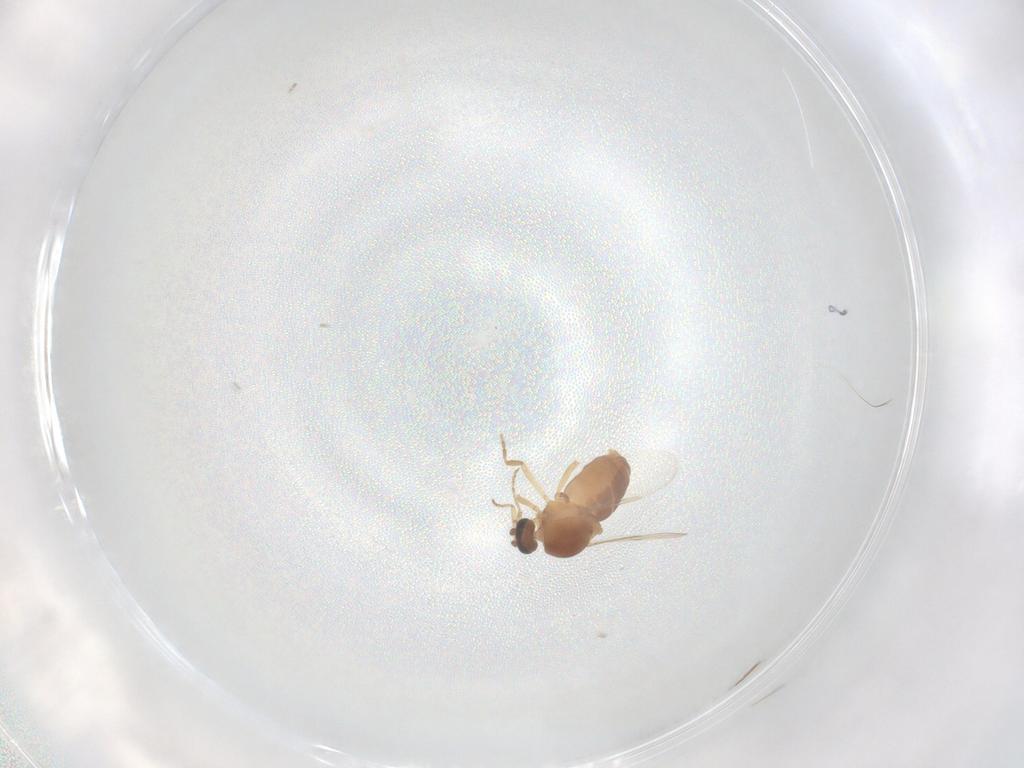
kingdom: Animalia
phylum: Arthropoda
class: Insecta
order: Diptera
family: Ceratopogonidae
